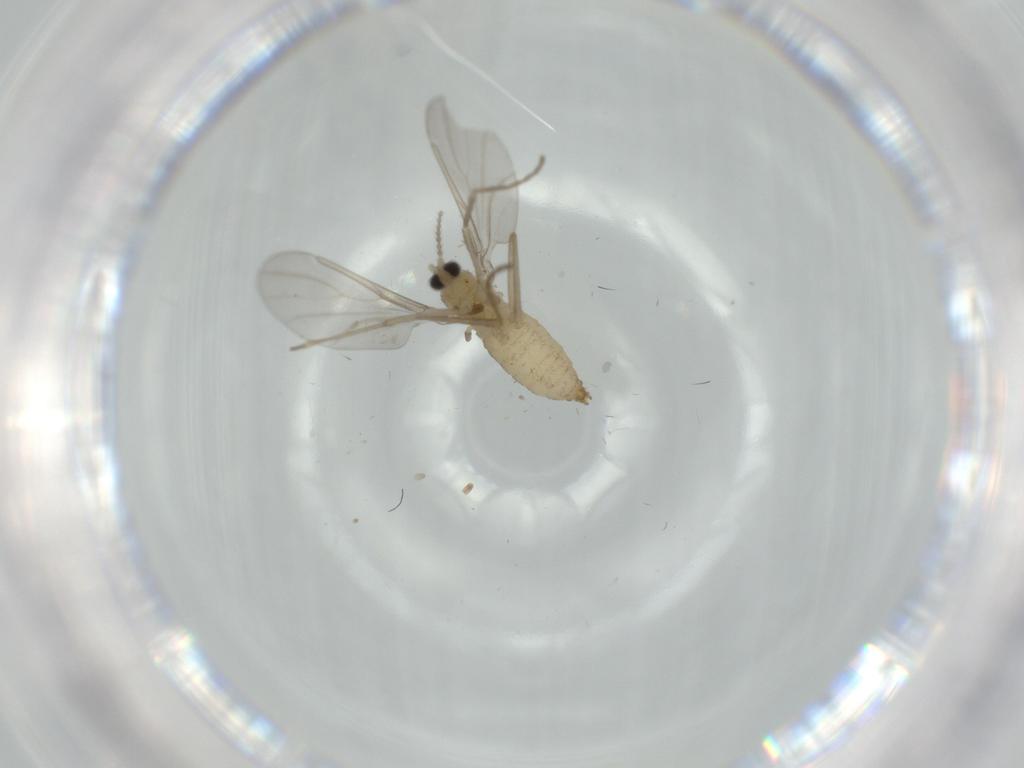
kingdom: Animalia
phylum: Arthropoda
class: Insecta
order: Diptera
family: Cecidomyiidae
